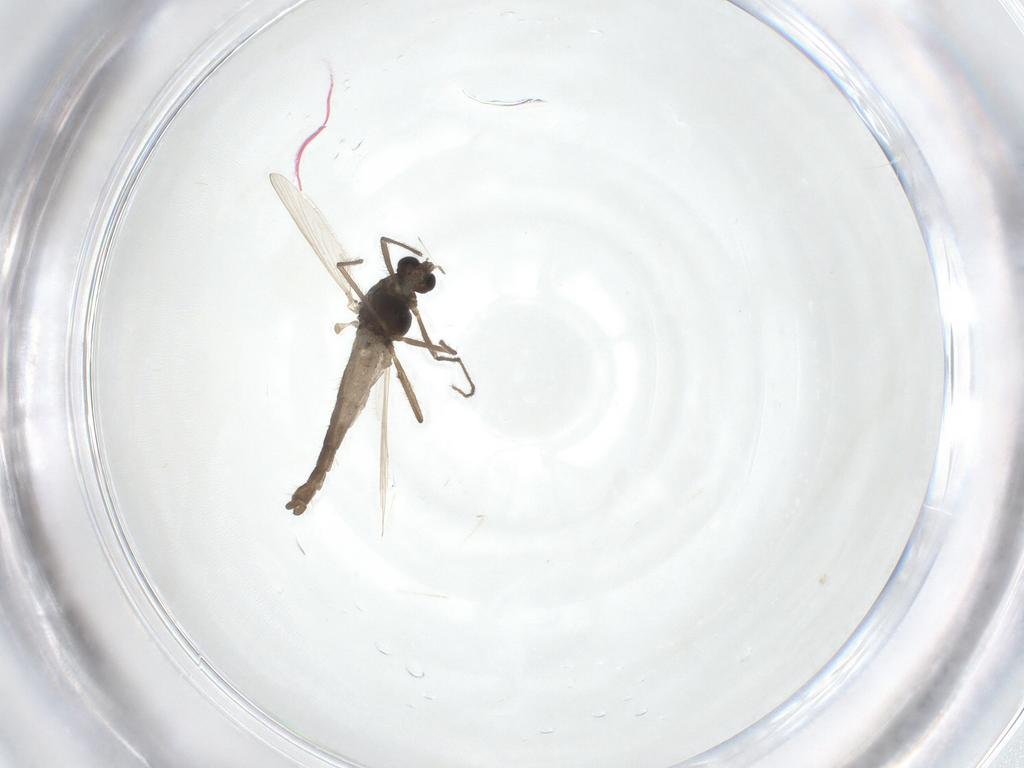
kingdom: Animalia
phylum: Arthropoda
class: Insecta
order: Diptera
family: Chironomidae
